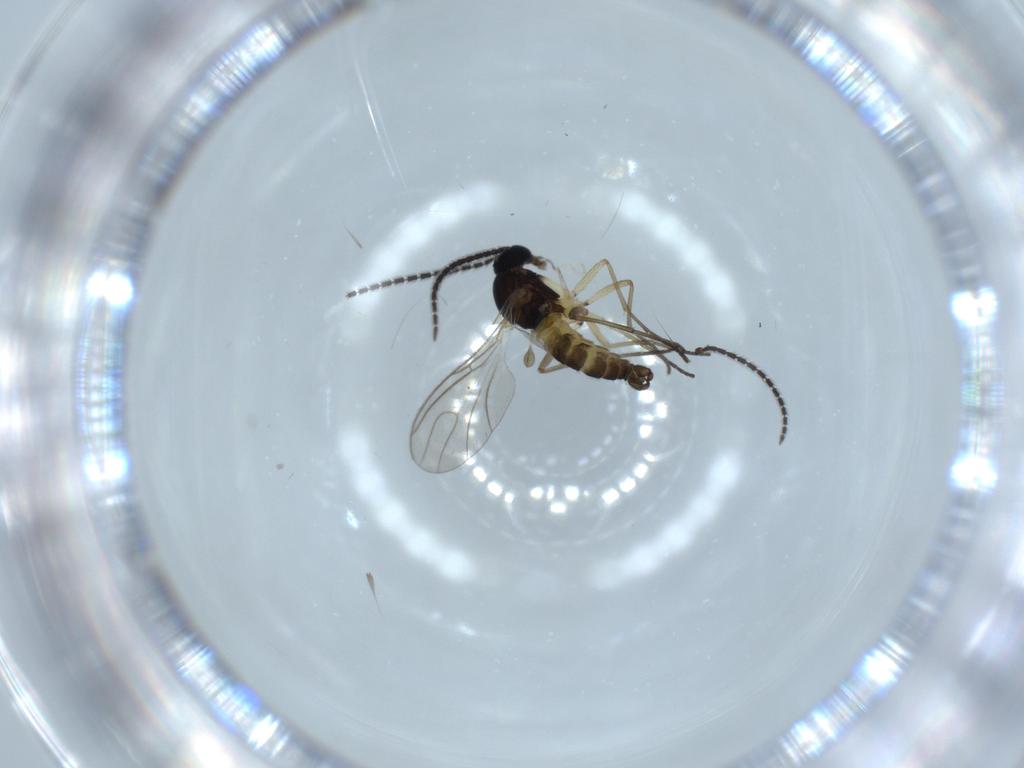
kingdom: Animalia
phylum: Arthropoda
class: Insecta
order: Diptera
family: Sciaridae
